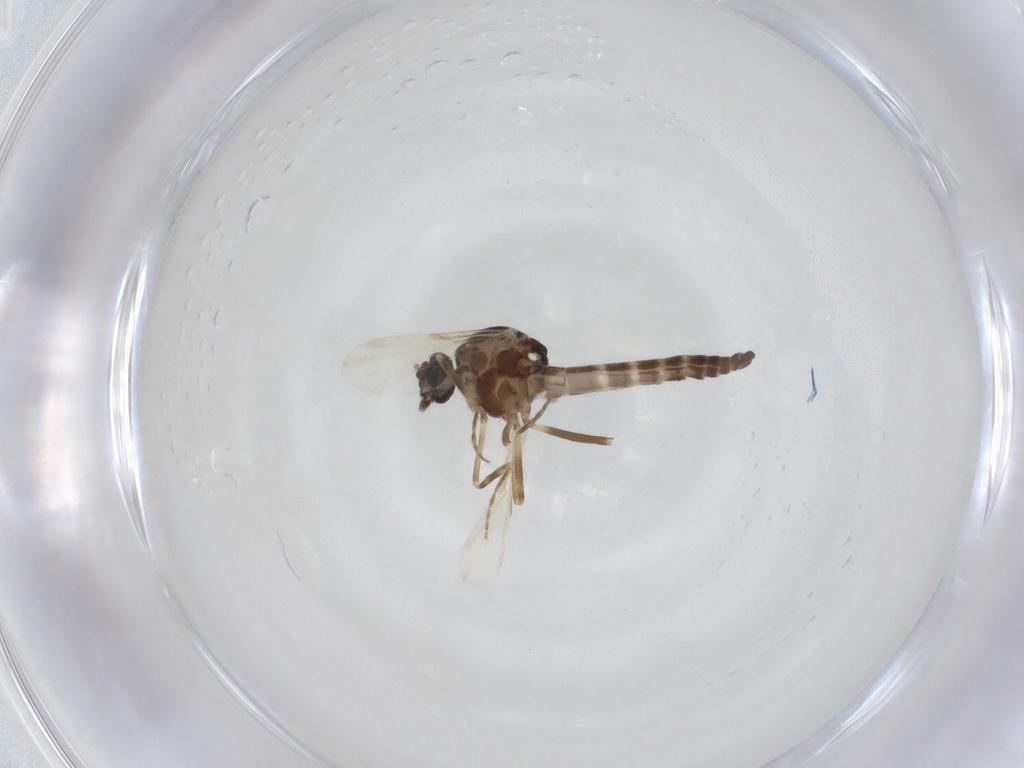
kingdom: Animalia
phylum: Arthropoda
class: Insecta
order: Diptera
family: Ceratopogonidae
